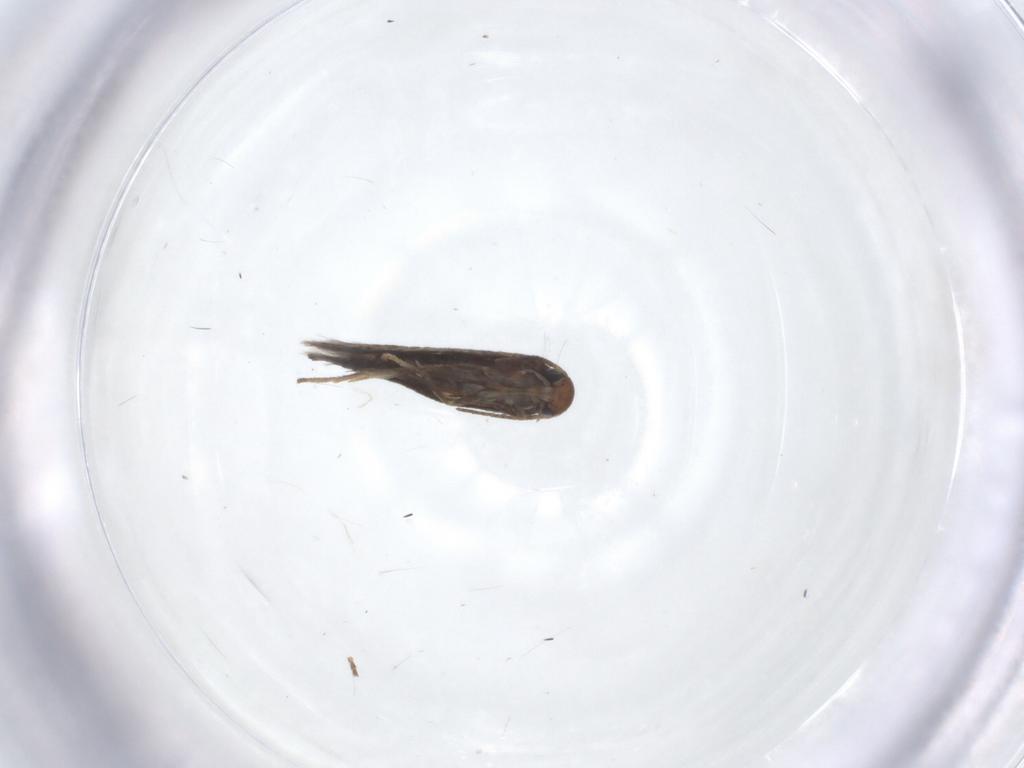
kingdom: Animalia
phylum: Arthropoda
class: Insecta
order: Lepidoptera
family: Heliozelidae
